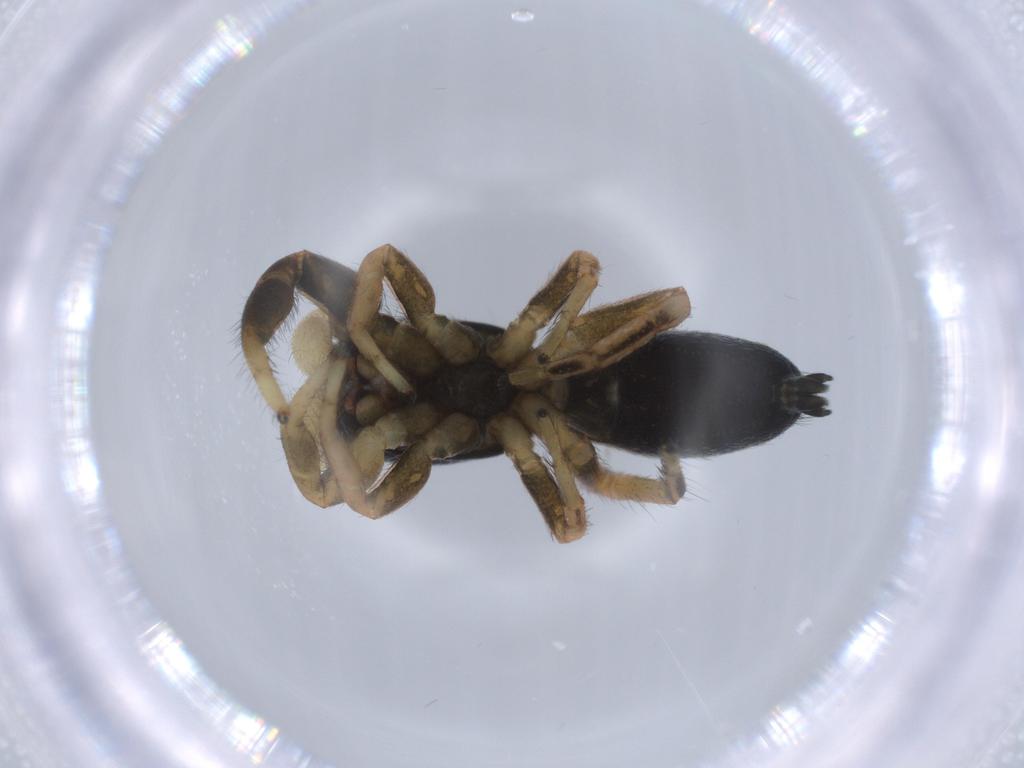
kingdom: Animalia
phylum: Arthropoda
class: Arachnida
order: Araneae
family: Salticidae
